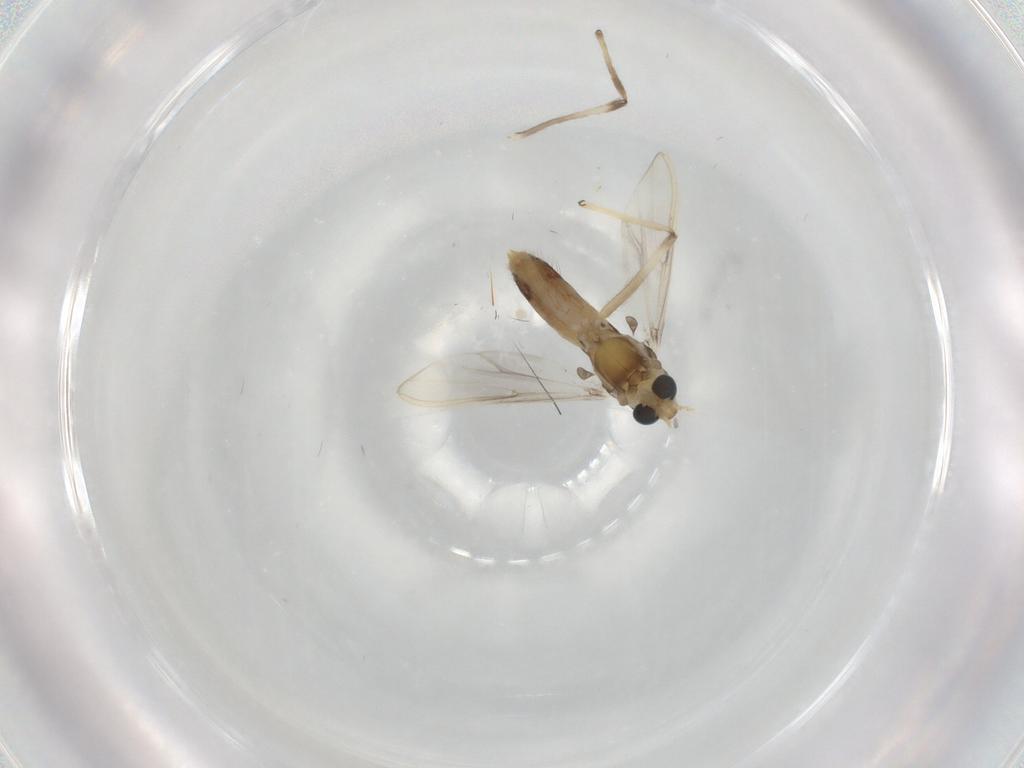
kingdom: Animalia
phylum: Arthropoda
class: Insecta
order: Diptera
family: Chironomidae
